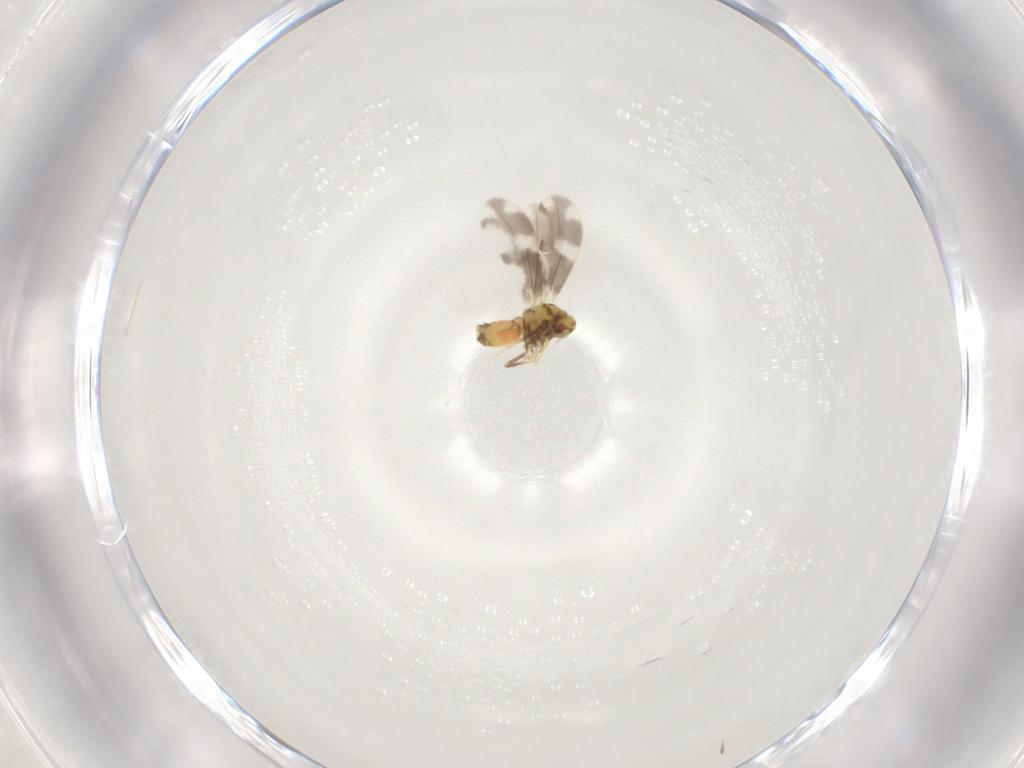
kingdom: Animalia
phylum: Arthropoda
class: Insecta
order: Hemiptera
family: Aleyrodidae
